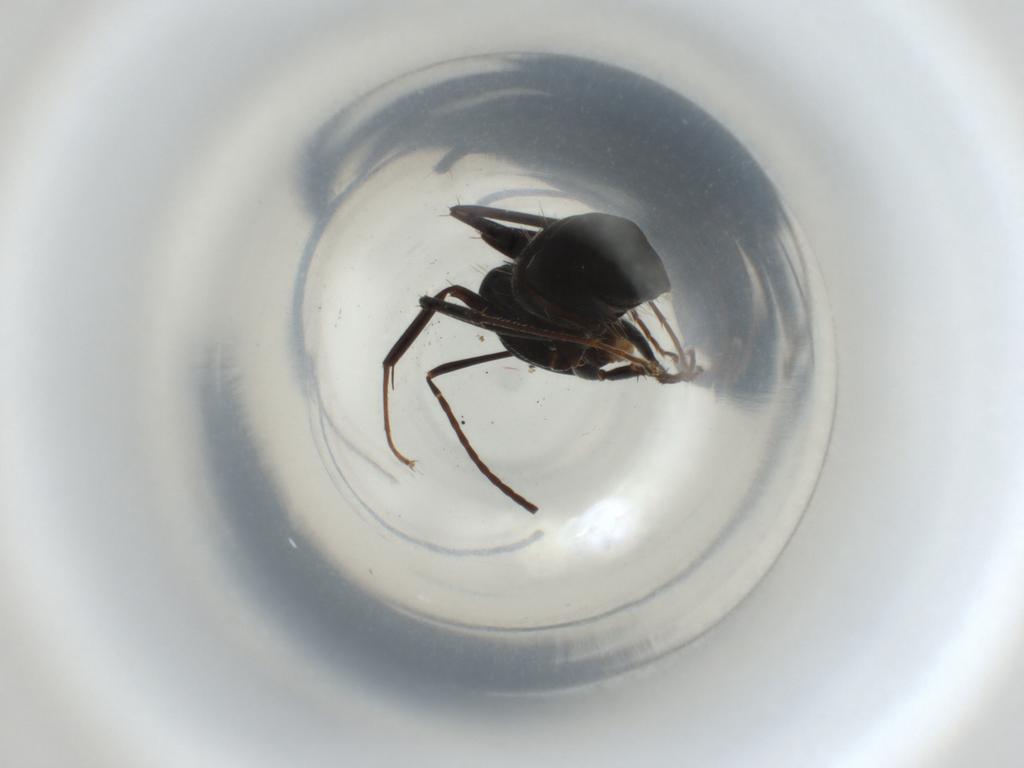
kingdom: Animalia
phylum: Arthropoda
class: Insecta
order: Hymenoptera
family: Formicidae
